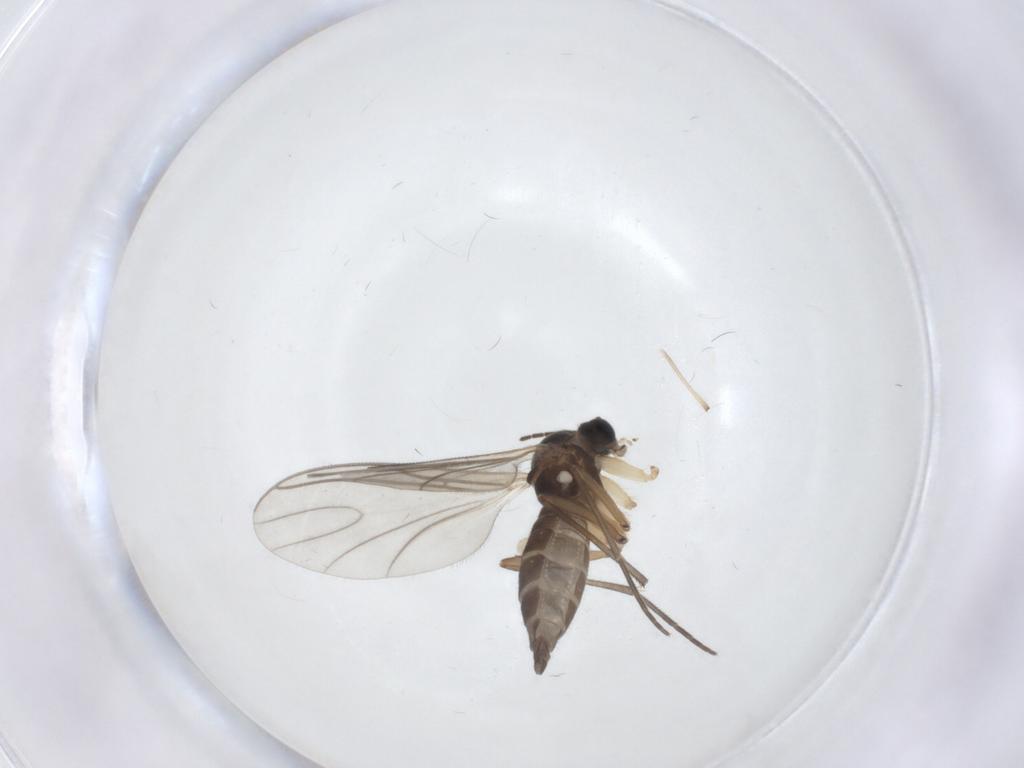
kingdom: Animalia
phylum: Arthropoda
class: Insecta
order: Diptera
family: Sciaridae
